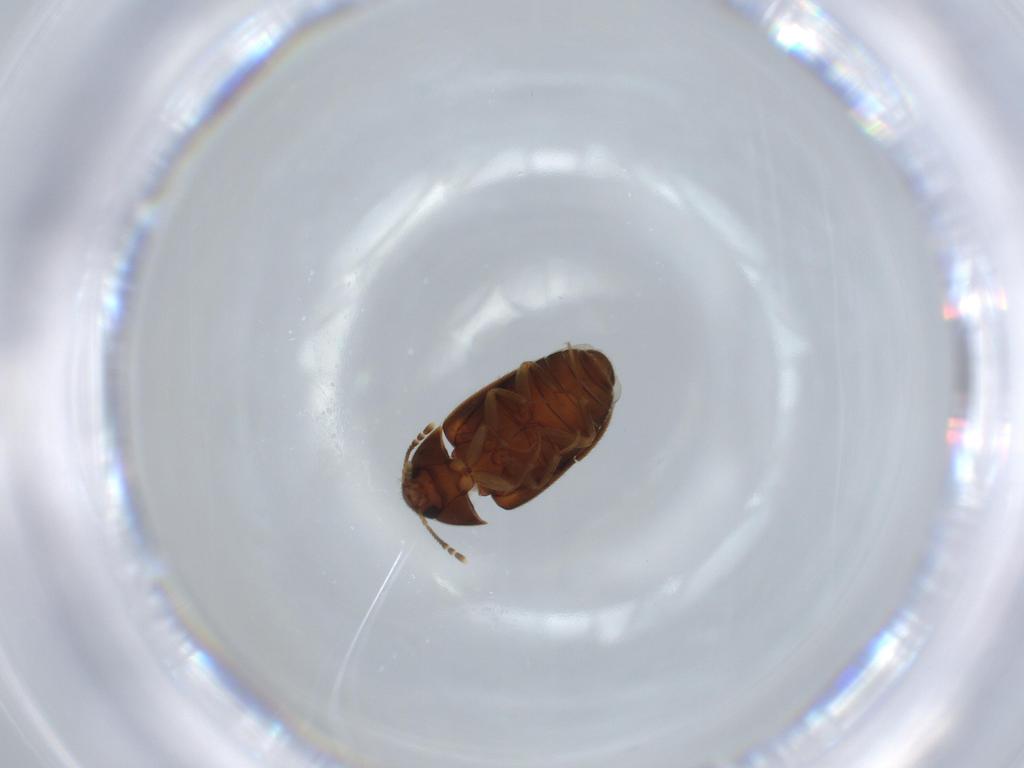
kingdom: Animalia
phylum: Arthropoda
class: Insecta
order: Coleoptera
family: Mycetophagidae
